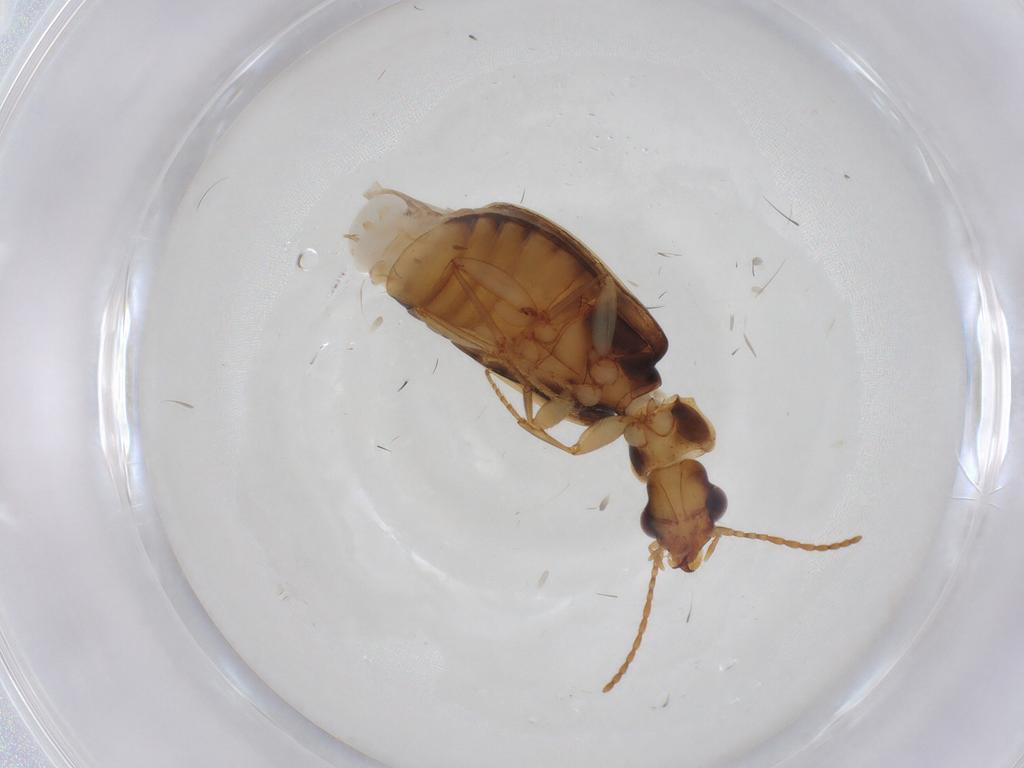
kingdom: Animalia
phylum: Arthropoda
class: Insecta
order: Coleoptera
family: Carabidae
